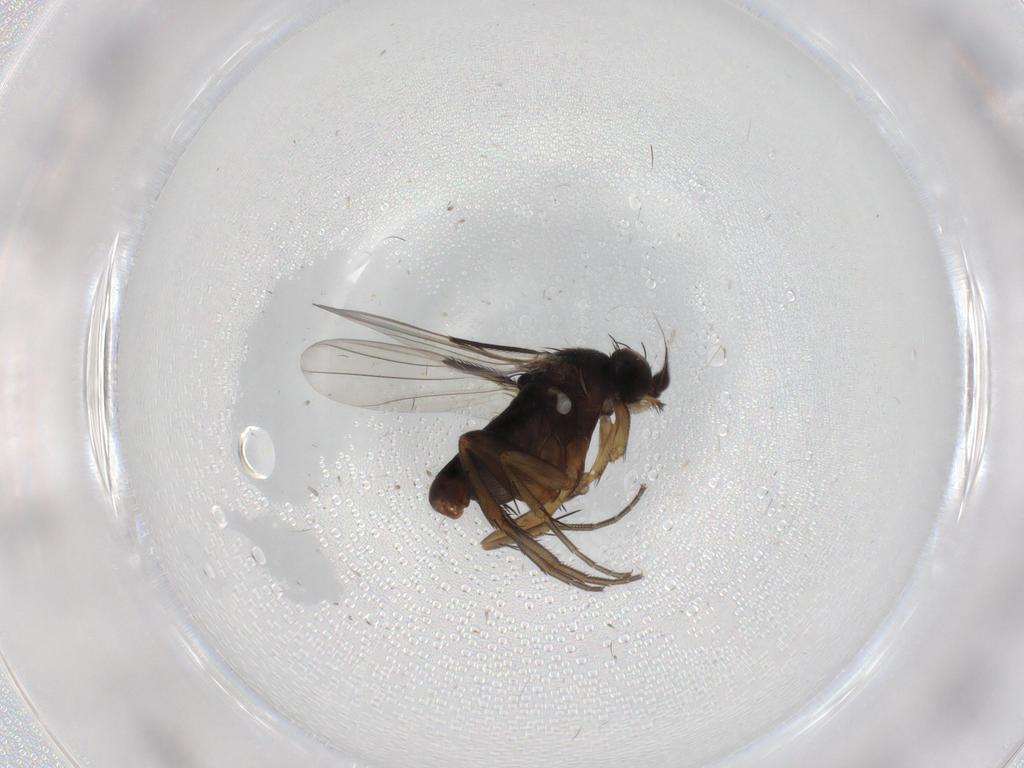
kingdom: Animalia
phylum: Arthropoda
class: Insecta
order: Diptera
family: Phoridae
